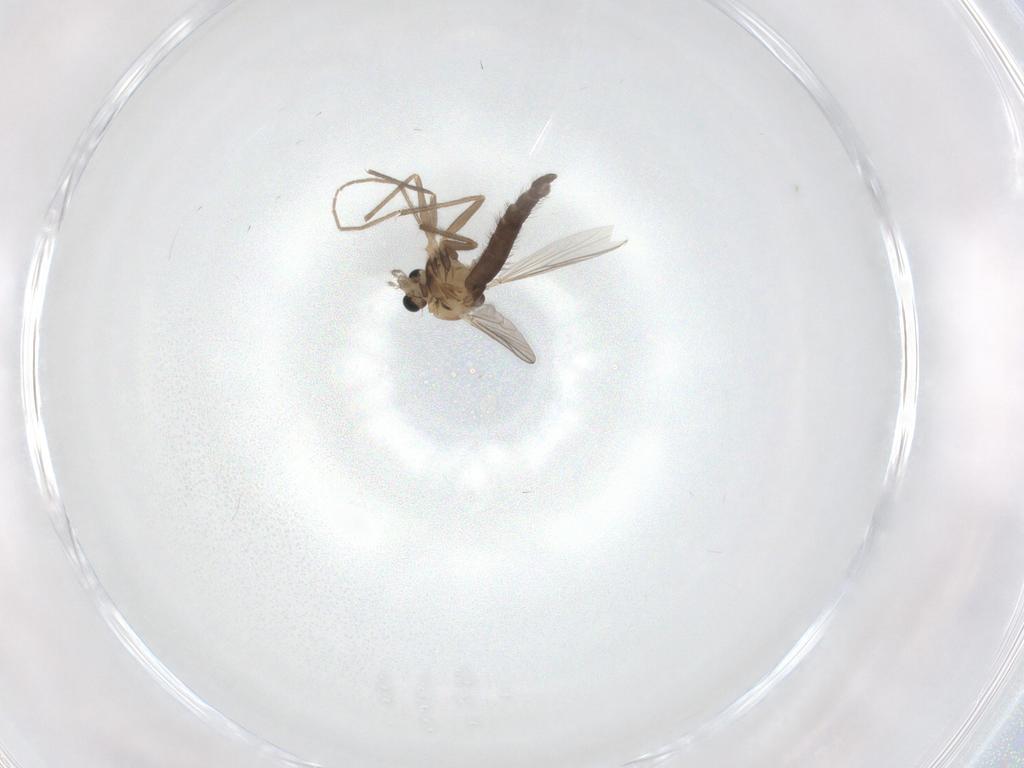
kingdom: Animalia
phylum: Arthropoda
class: Insecta
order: Diptera
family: Chironomidae
